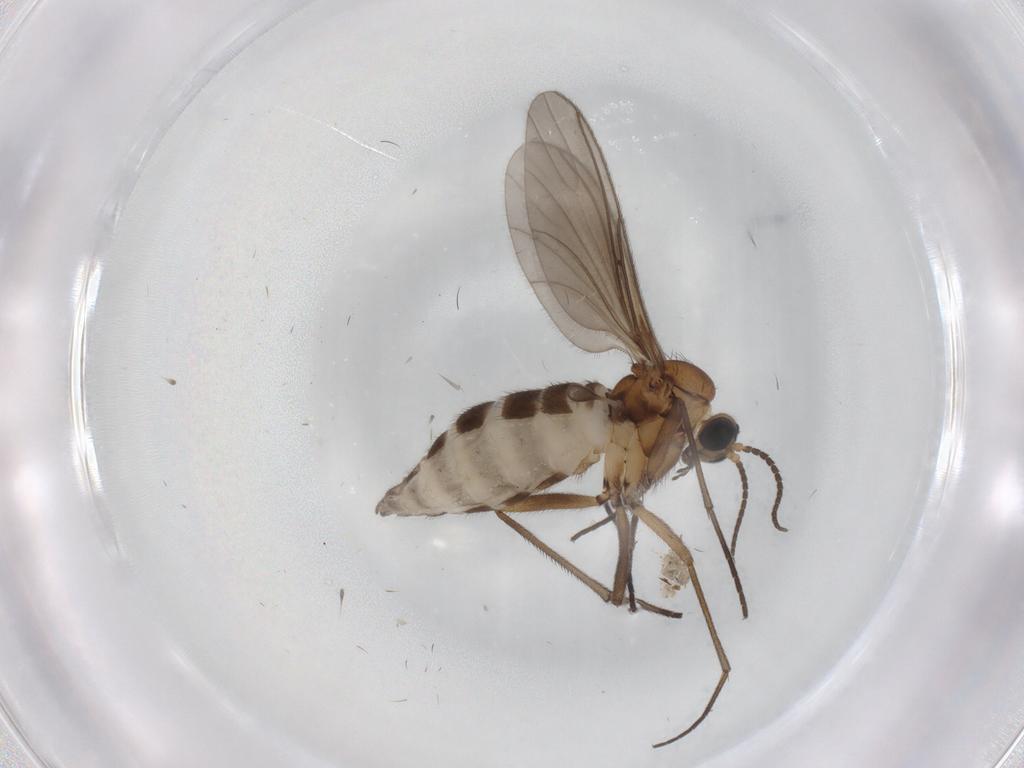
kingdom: Animalia
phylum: Arthropoda
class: Insecta
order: Diptera
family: Sciaridae
